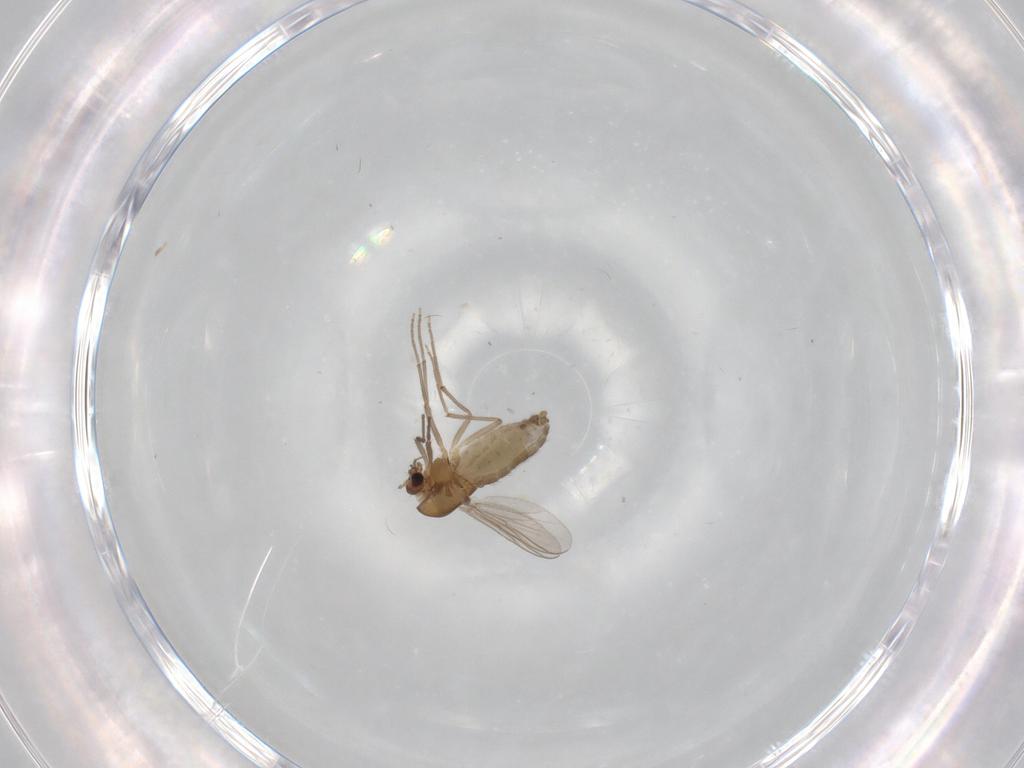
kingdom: Animalia
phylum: Arthropoda
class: Insecta
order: Diptera
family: Chironomidae
